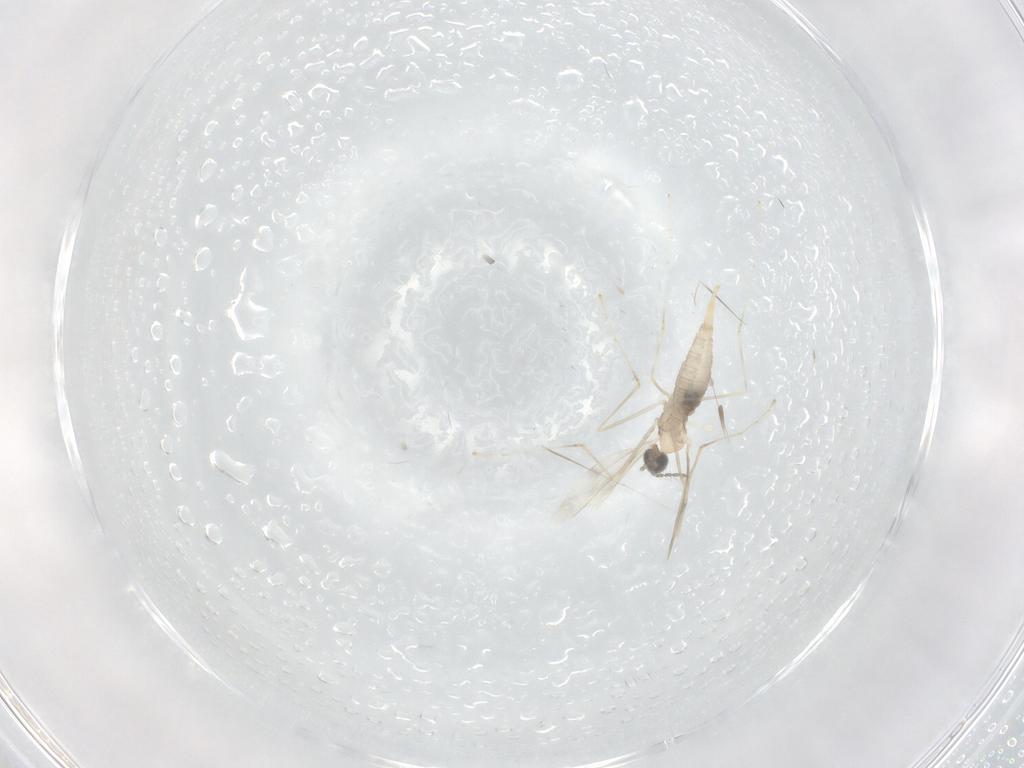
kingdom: Animalia
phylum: Arthropoda
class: Insecta
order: Diptera
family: Cecidomyiidae
